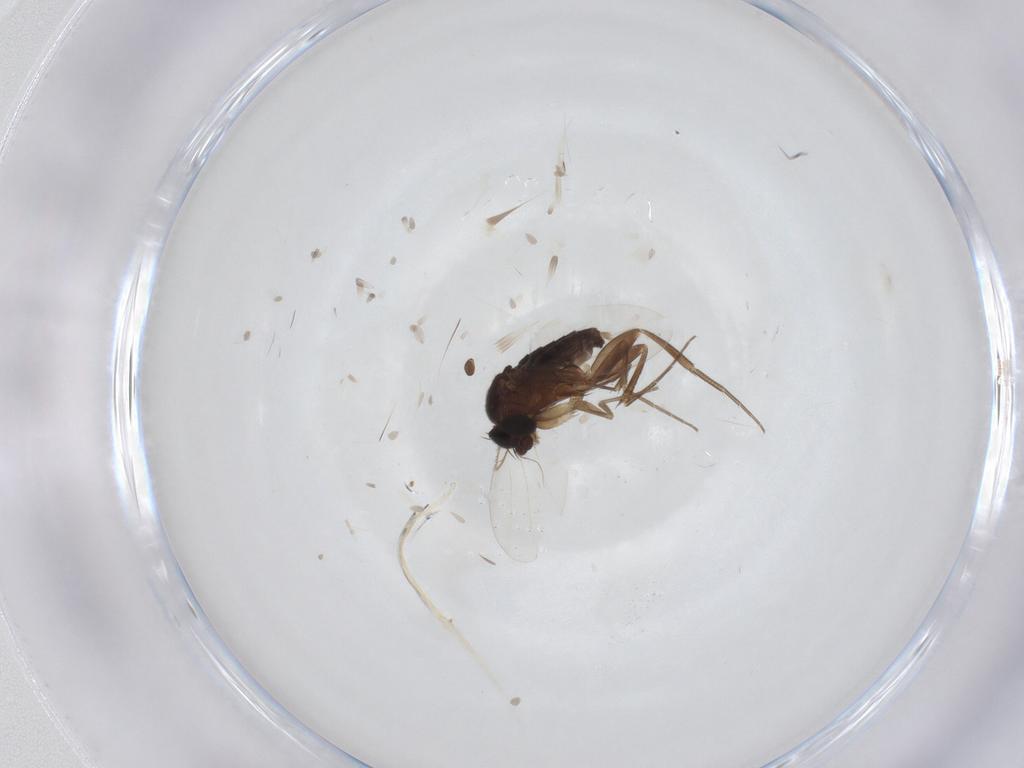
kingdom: Animalia
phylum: Arthropoda
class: Insecta
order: Diptera
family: Phoridae
